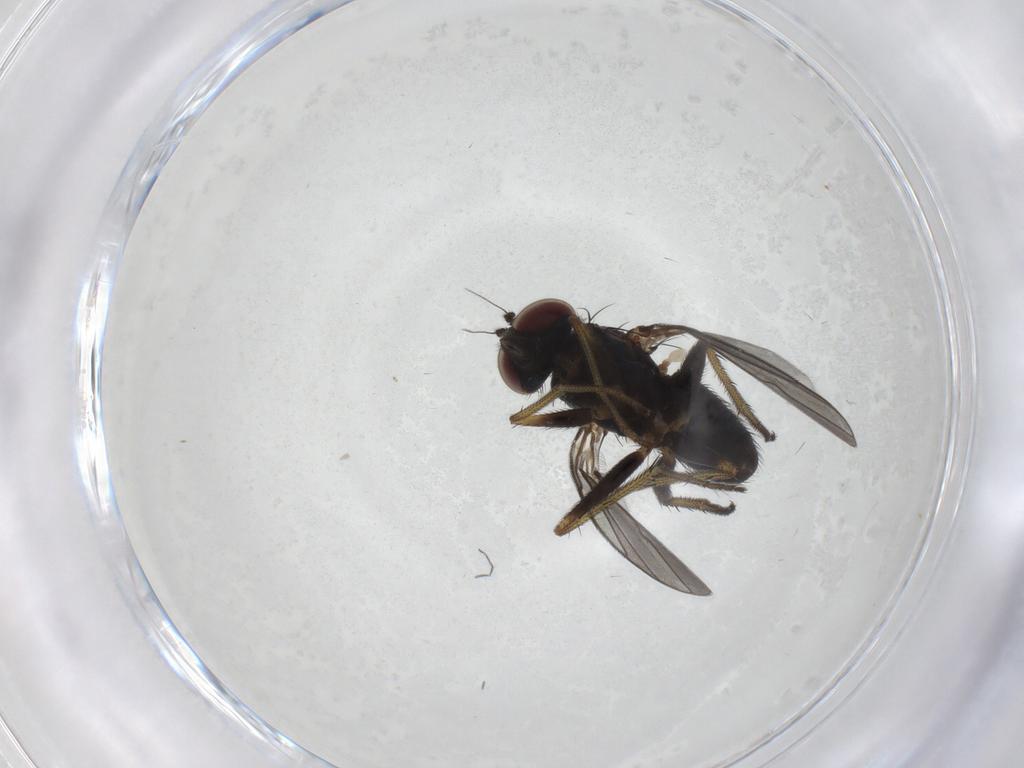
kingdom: Animalia
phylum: Arthropoda
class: Insecta
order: Diptera
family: Dolichopodidae
